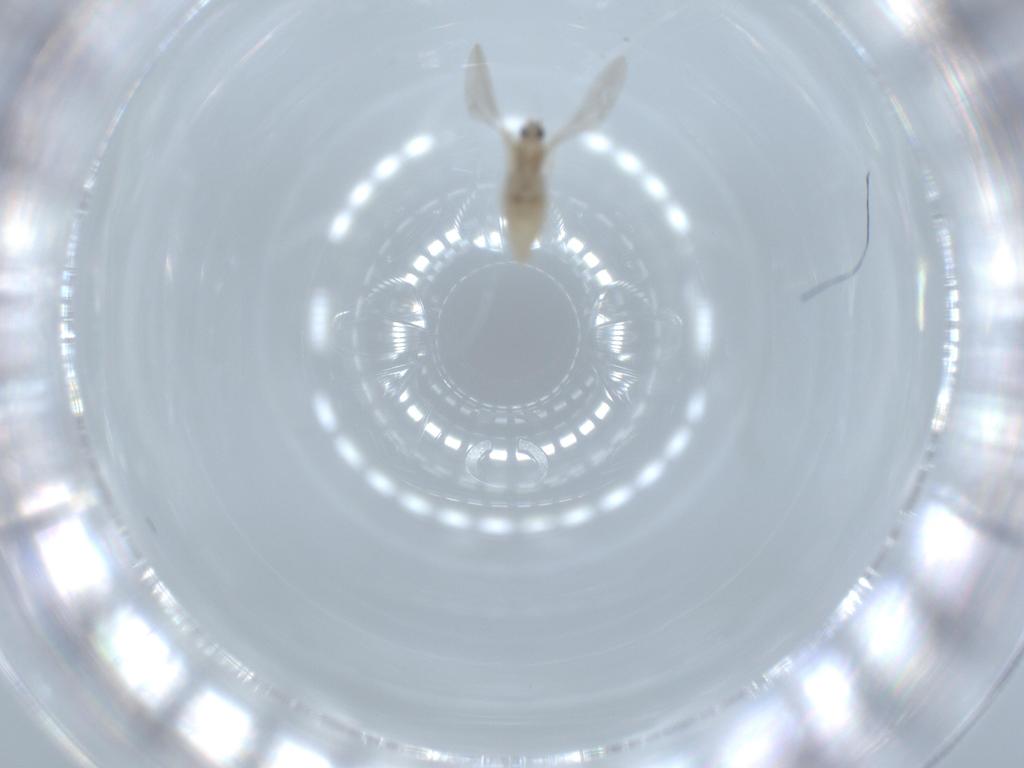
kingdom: Animalia
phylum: Arthropoda
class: Insecta
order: Diptera
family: Cecidomyiidae
